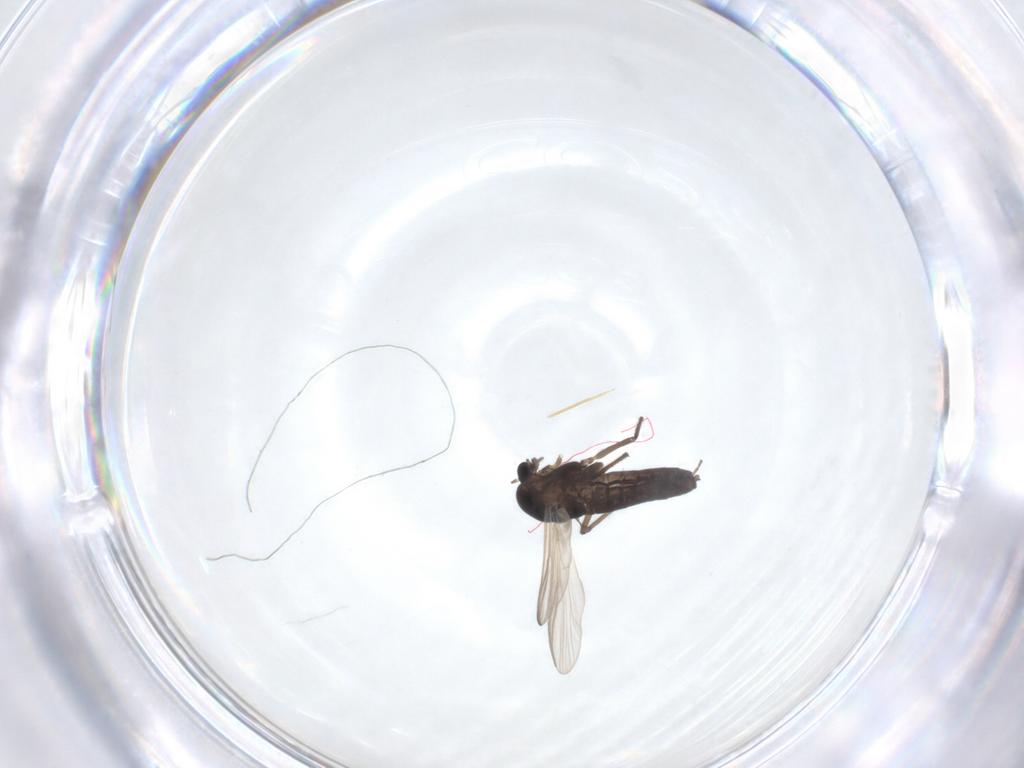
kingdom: Animalia
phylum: Arthropoda
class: Insecta
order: Diptera
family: Chironomidae
